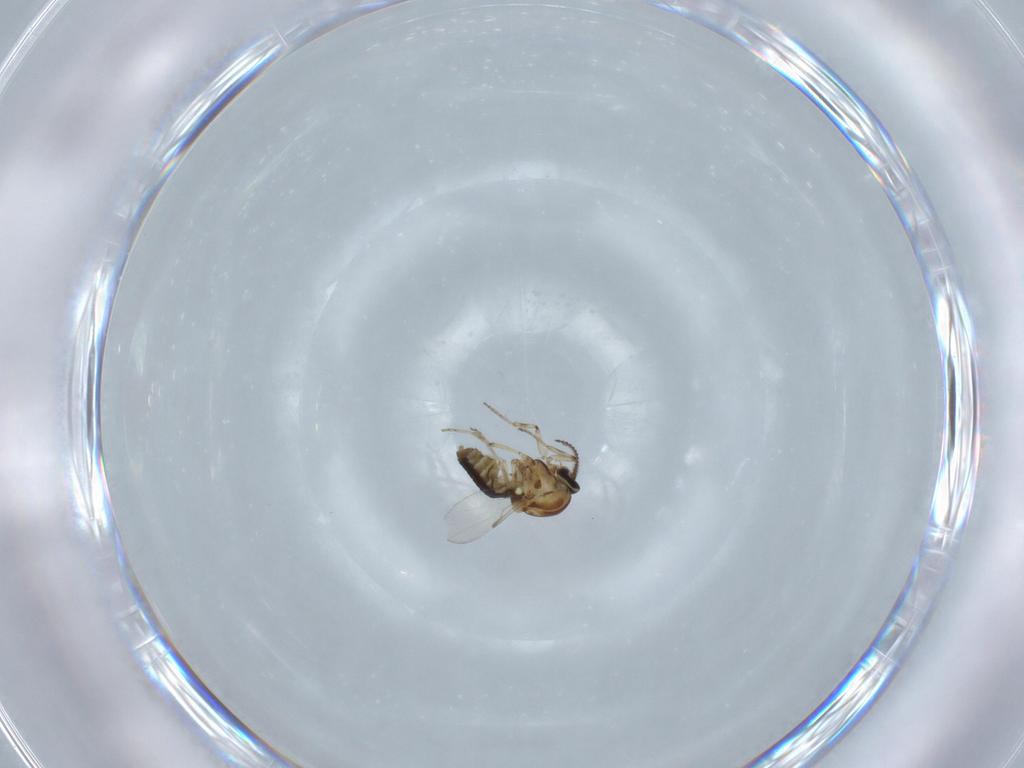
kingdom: Animalia
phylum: Arthropoda
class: Insecta
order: Diptera
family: Ceratopogonidae
